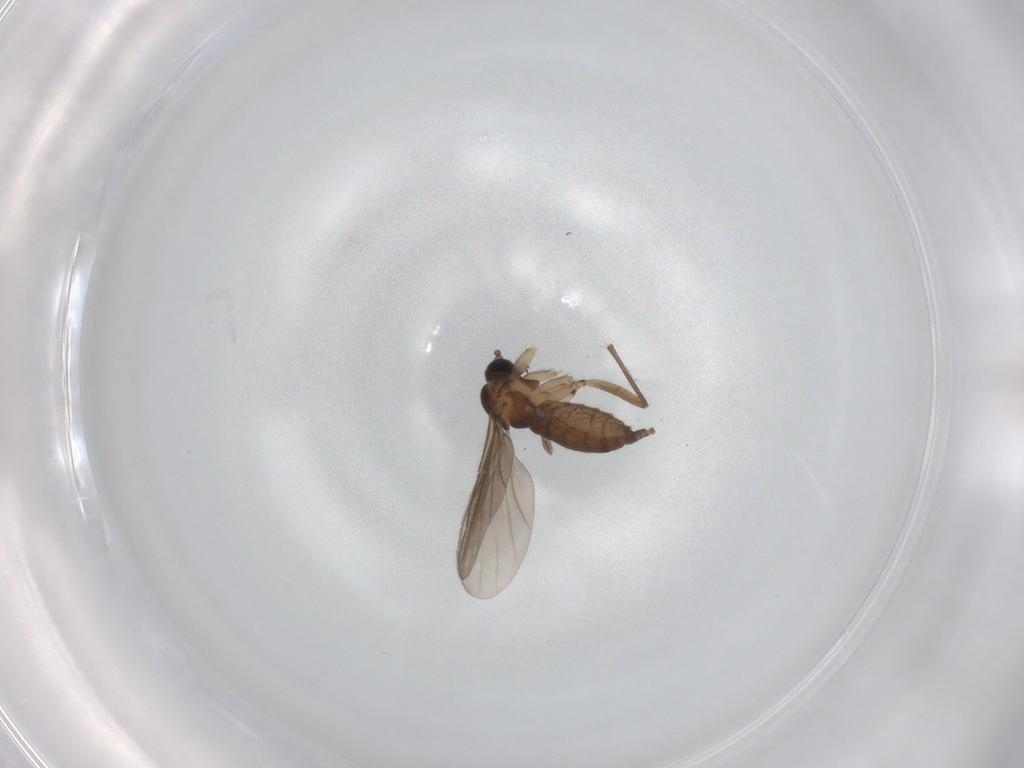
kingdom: Animalia
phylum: Arthropoda
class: Insecta
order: Diptera
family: Sciaridae
